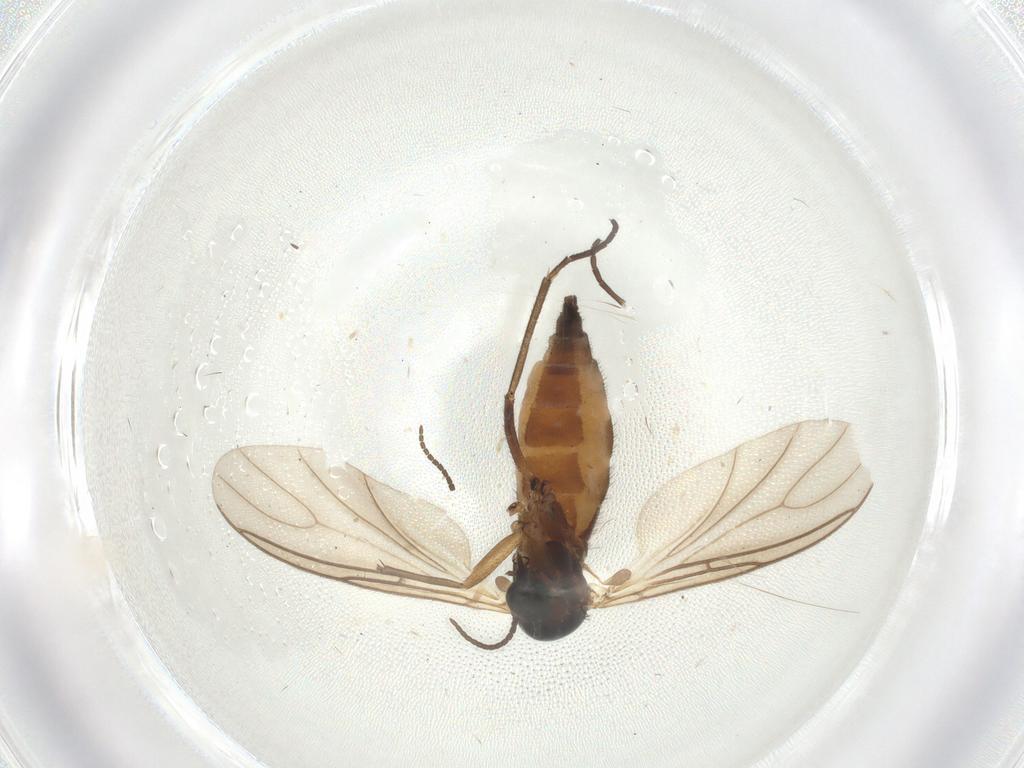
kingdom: Animalia
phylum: Arthropoda
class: Insecta
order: Diptera
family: Sciaridae
